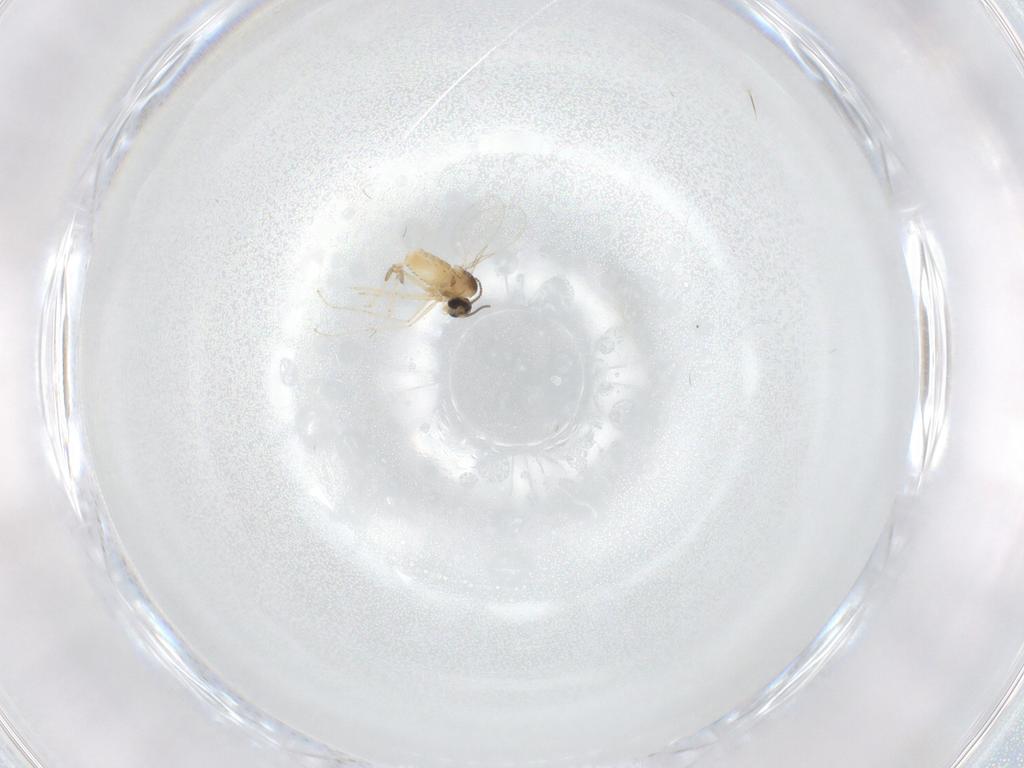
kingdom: Animalia
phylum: Arthropoda
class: Insecta
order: Diptera
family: Cecidomyiidae
